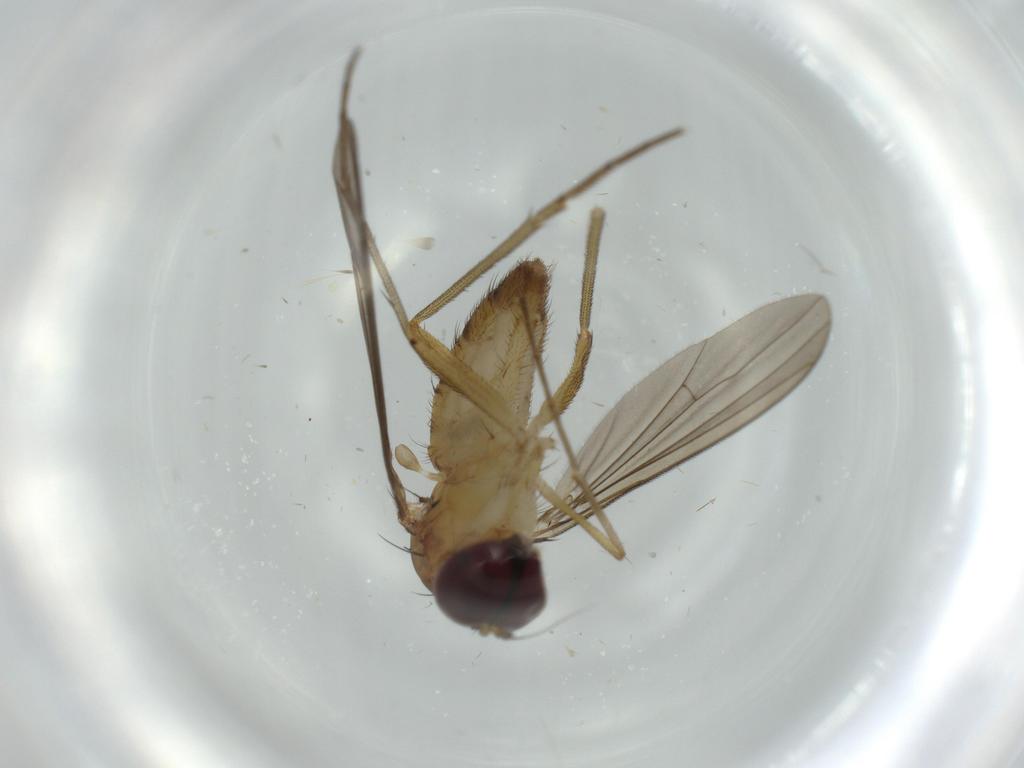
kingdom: Animalia
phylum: Arthropoda
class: Insecta
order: Diptera
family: Dolichopodidae
